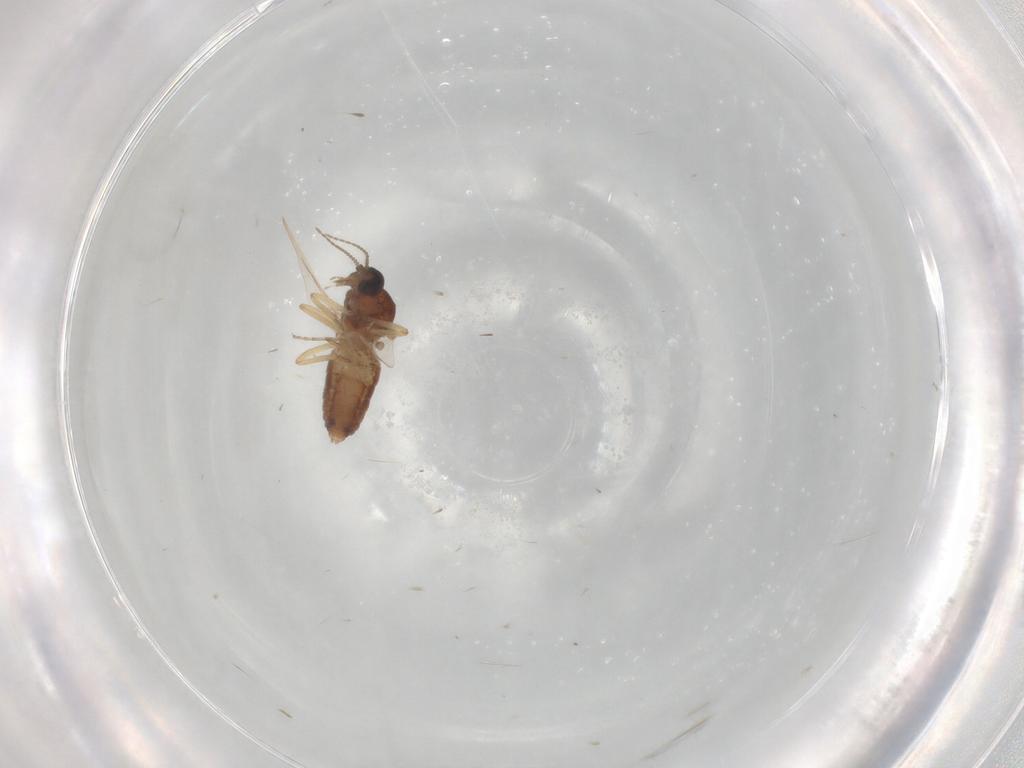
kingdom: Animalia
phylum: Arthropoda
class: Insecta
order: Diptera
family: Ceratopogonidae
